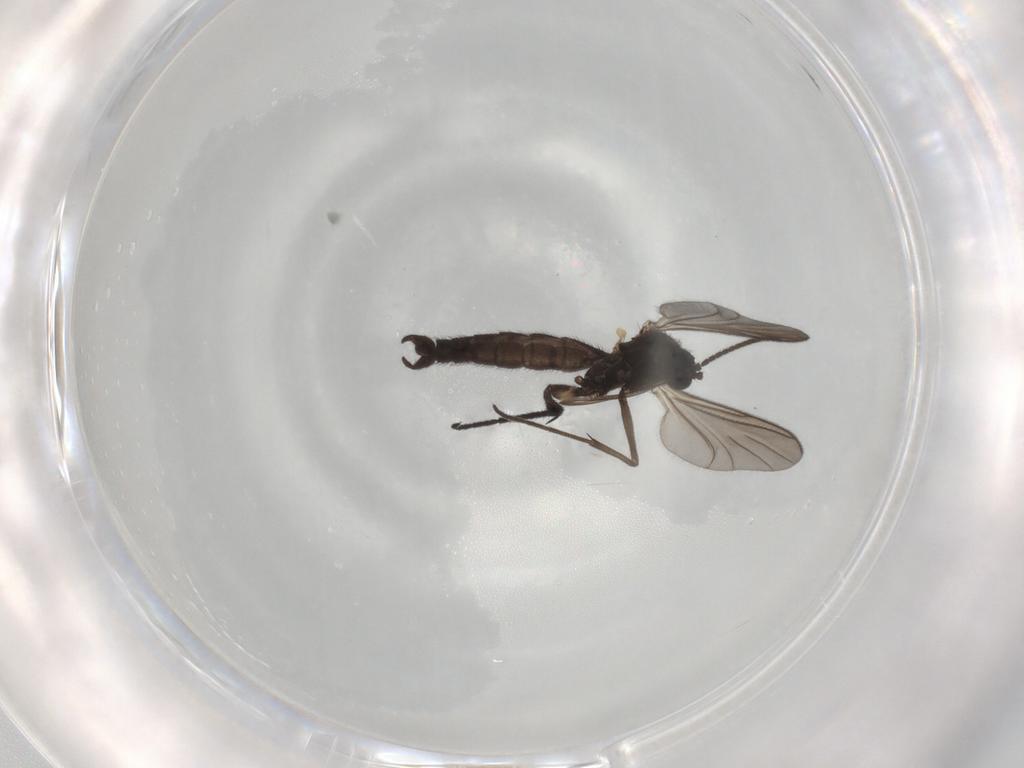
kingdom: Animalia
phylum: Arthropoda
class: Insecta
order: Diptera
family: Keroplatidae
